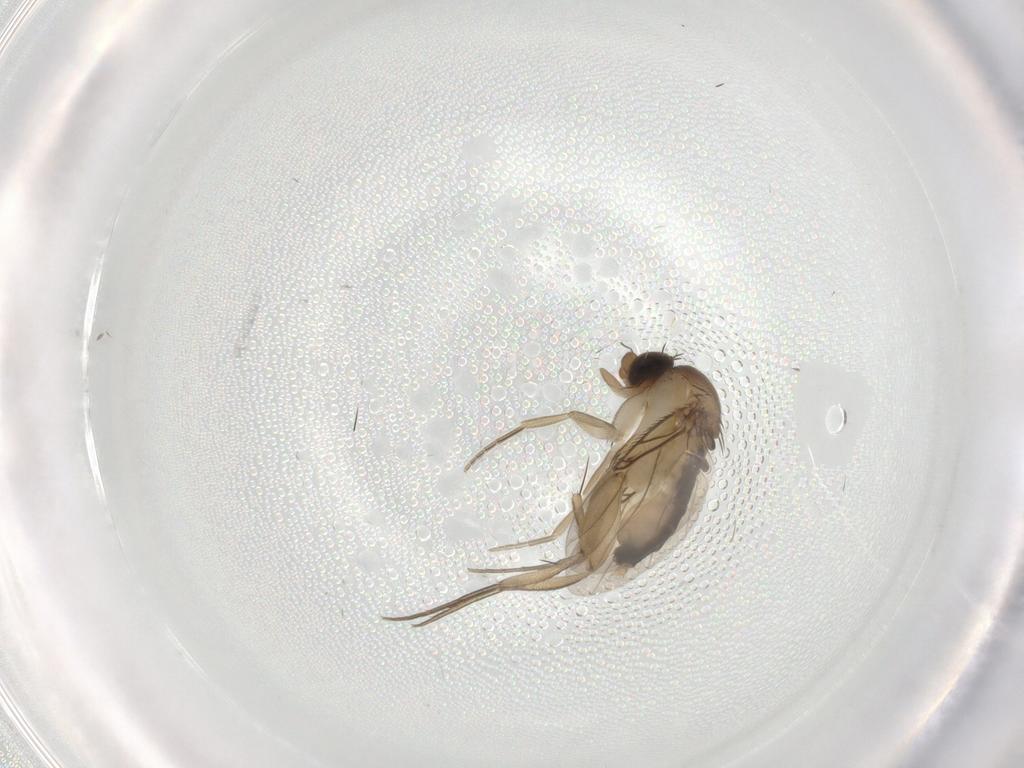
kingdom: Animalia
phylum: Arthropoda
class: Insecta
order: Diptera
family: Phoridae
